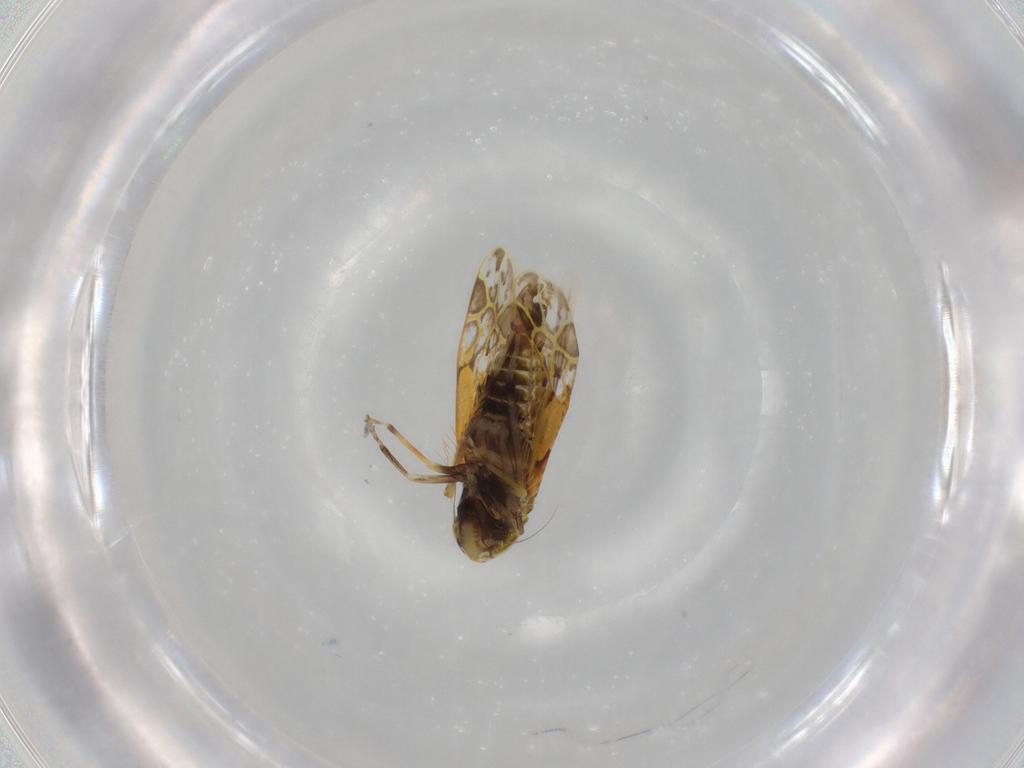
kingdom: Animalia
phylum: Arthropoda
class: Insecta
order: Hemiptera
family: Cicadellidae
